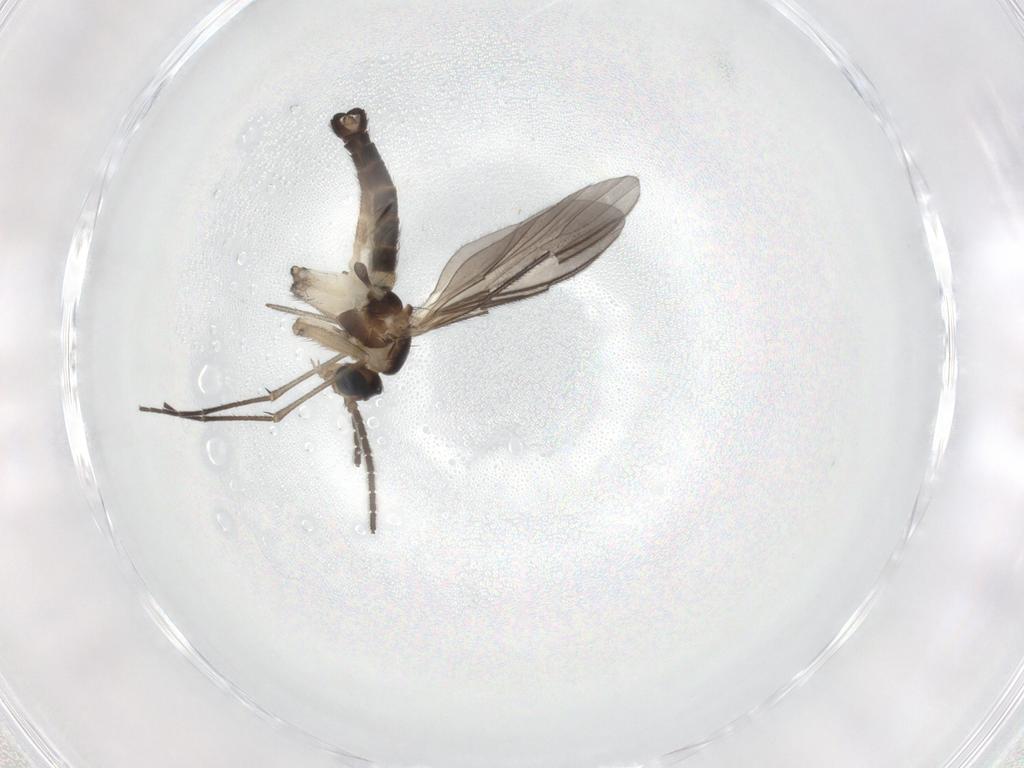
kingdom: Animalia
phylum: Arthropoda
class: Insecta
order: Diptera
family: Sciaridae
